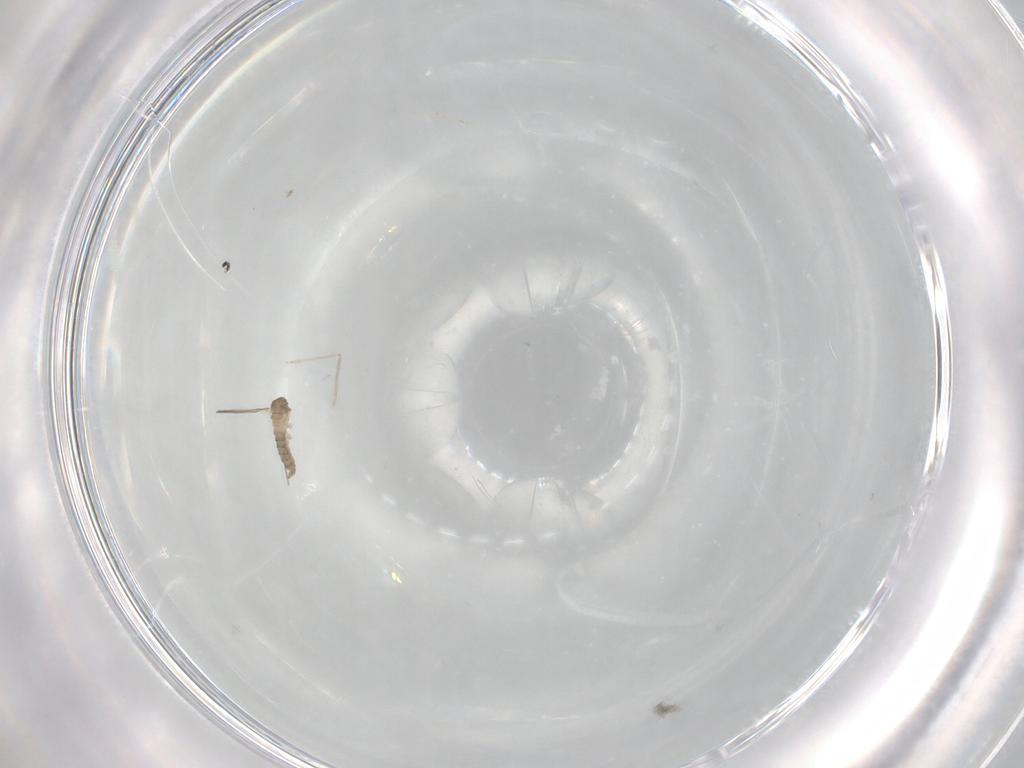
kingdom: Animalia
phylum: Arthropoda
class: Insecta
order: Diptera
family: Cecidomyiidae
